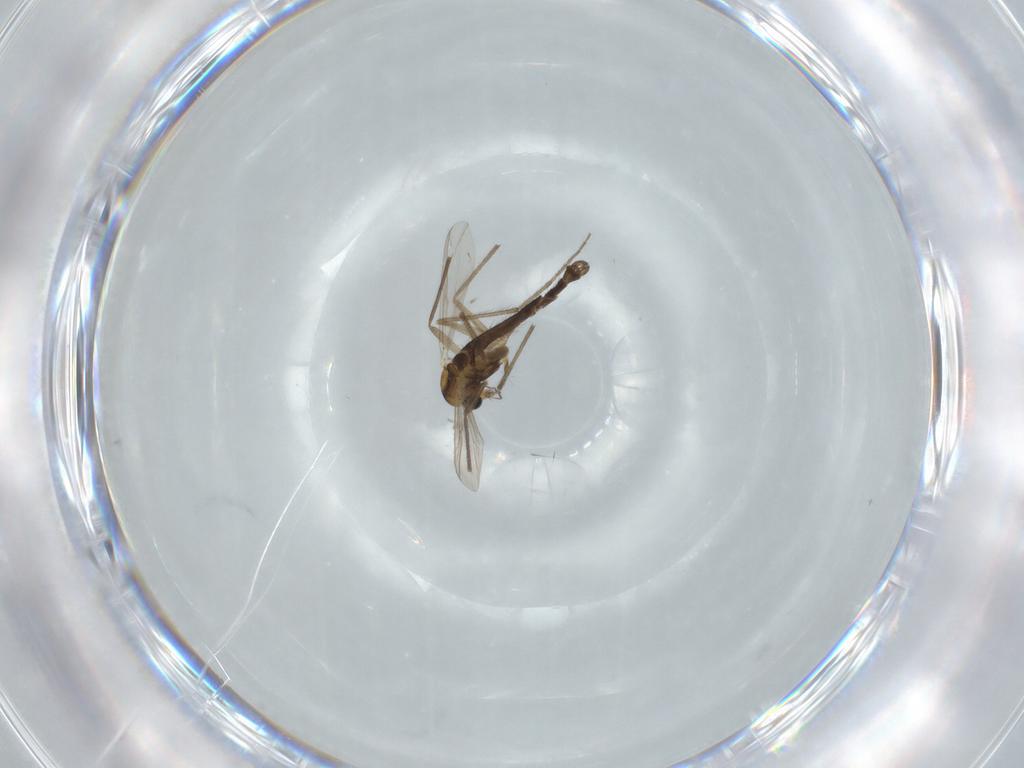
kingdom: Animalia
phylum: Arthropoda
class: Insecta
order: Diptera
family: Chironomidae
